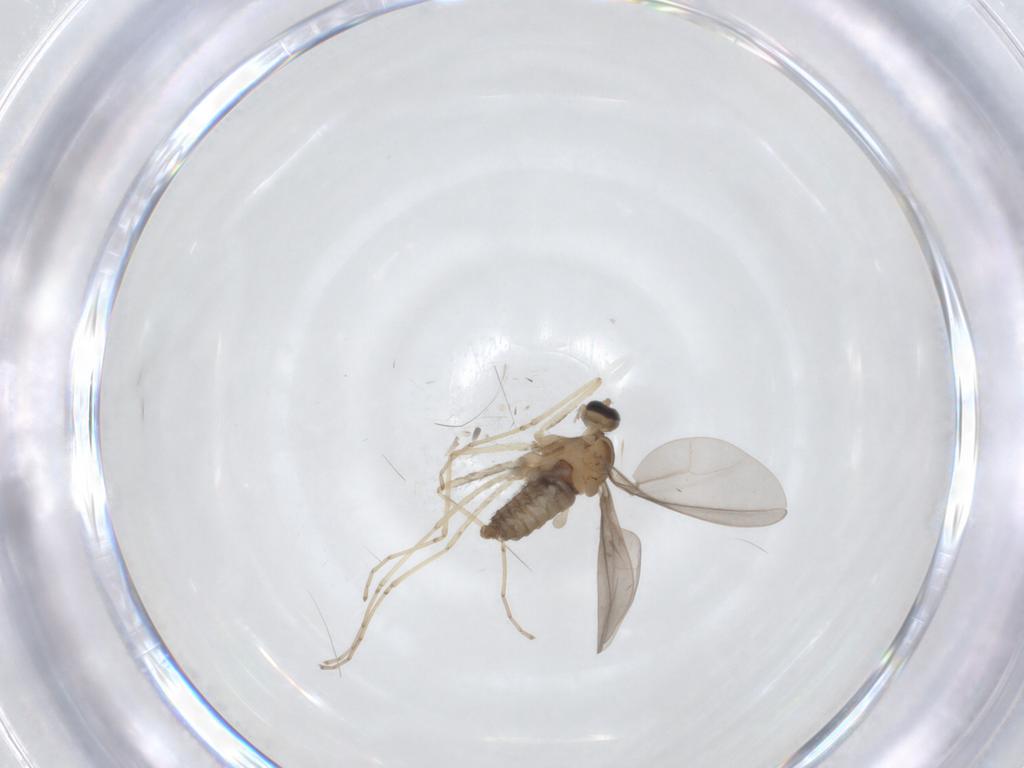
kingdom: Animalia
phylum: Arthropoda
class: Insecta
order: Diptera
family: Cecidomyiidae
